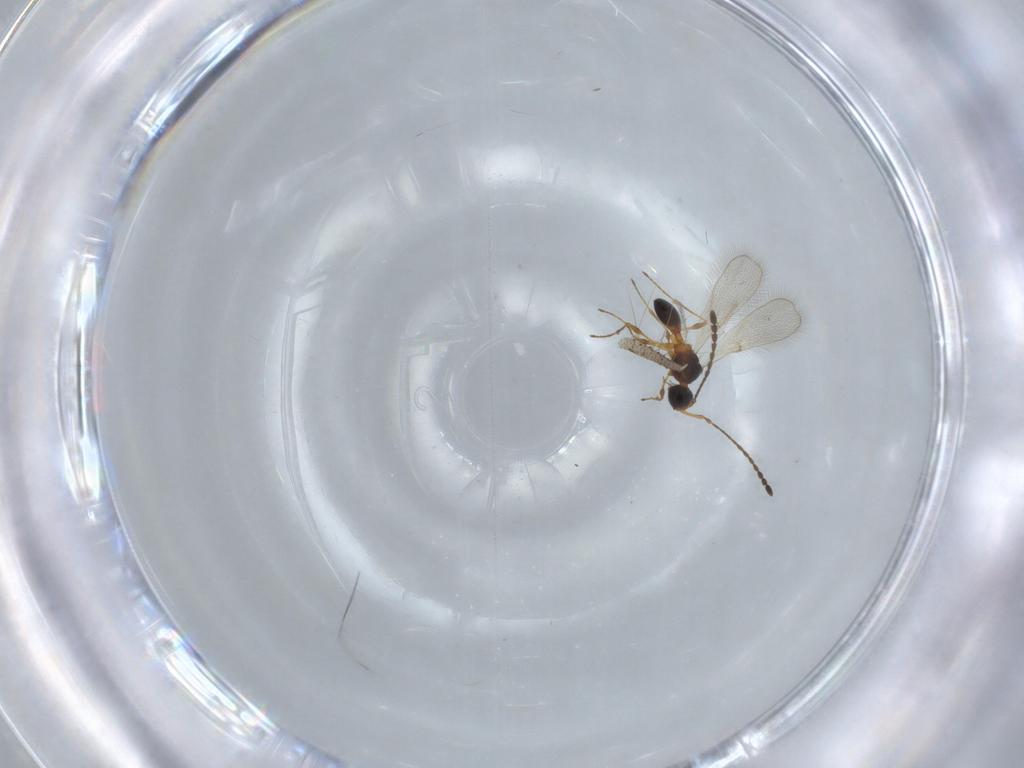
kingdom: Animalia
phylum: Arthropoda
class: Insecta
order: Hymenoptera
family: Diapriidae
